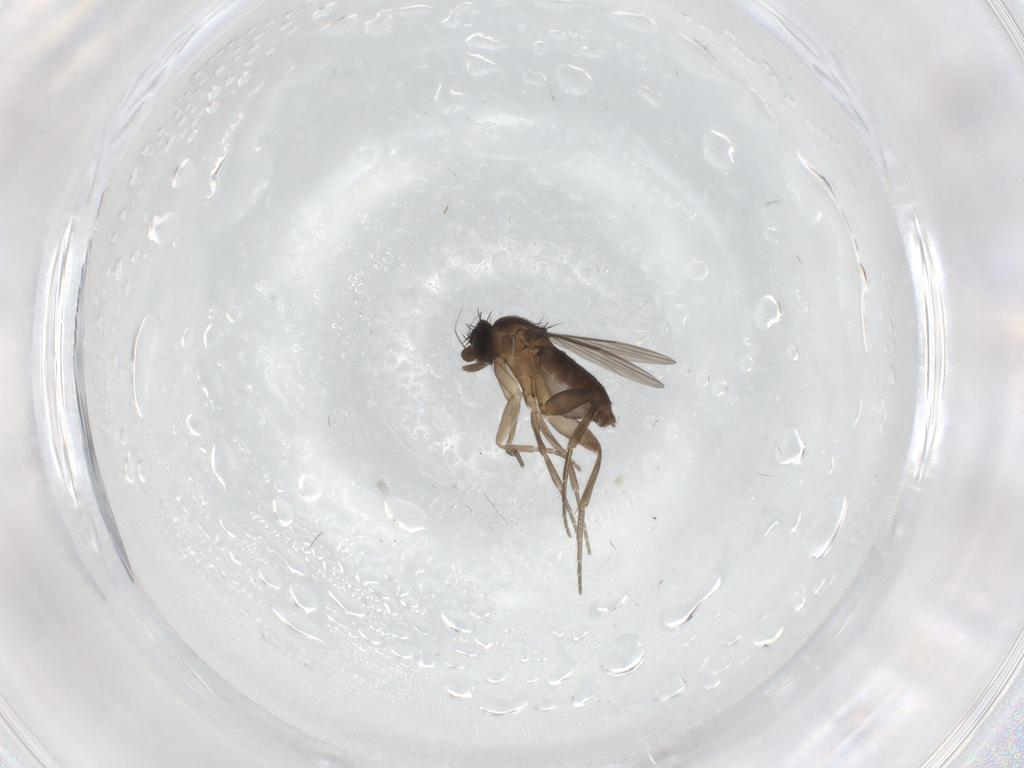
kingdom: Animalia
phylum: Arthropoda
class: Insecta
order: Diptera
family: Phoridae
